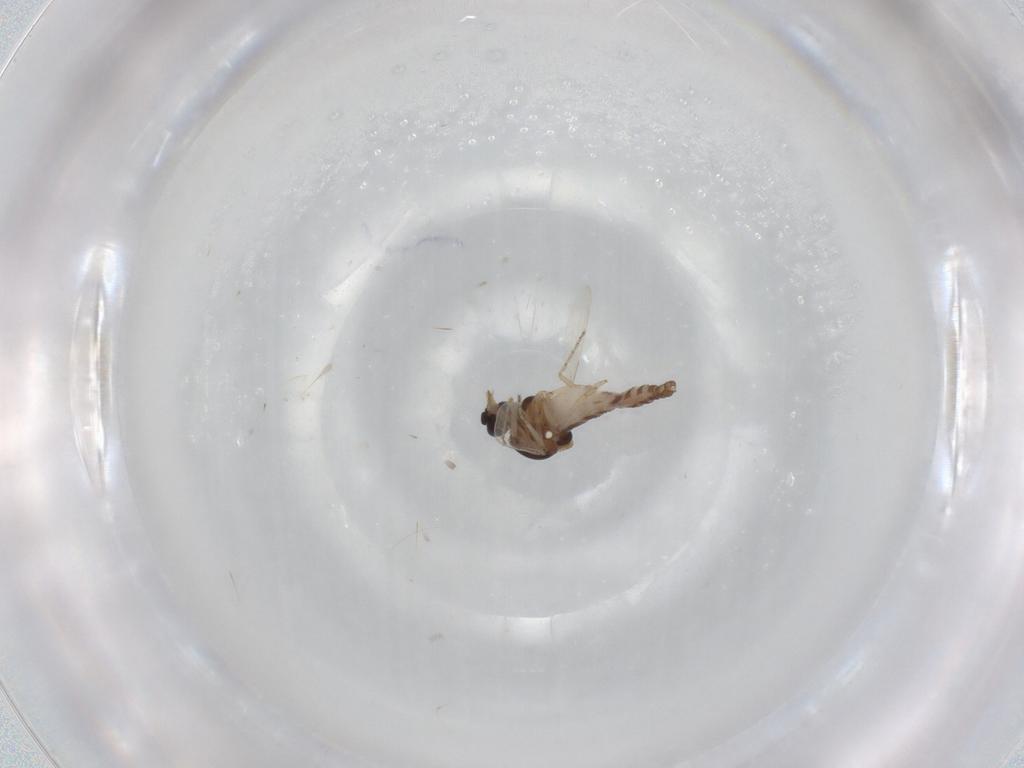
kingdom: Animalia
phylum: Arthropoda
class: Insecta
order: Diptera
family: Ceratopogonidae
